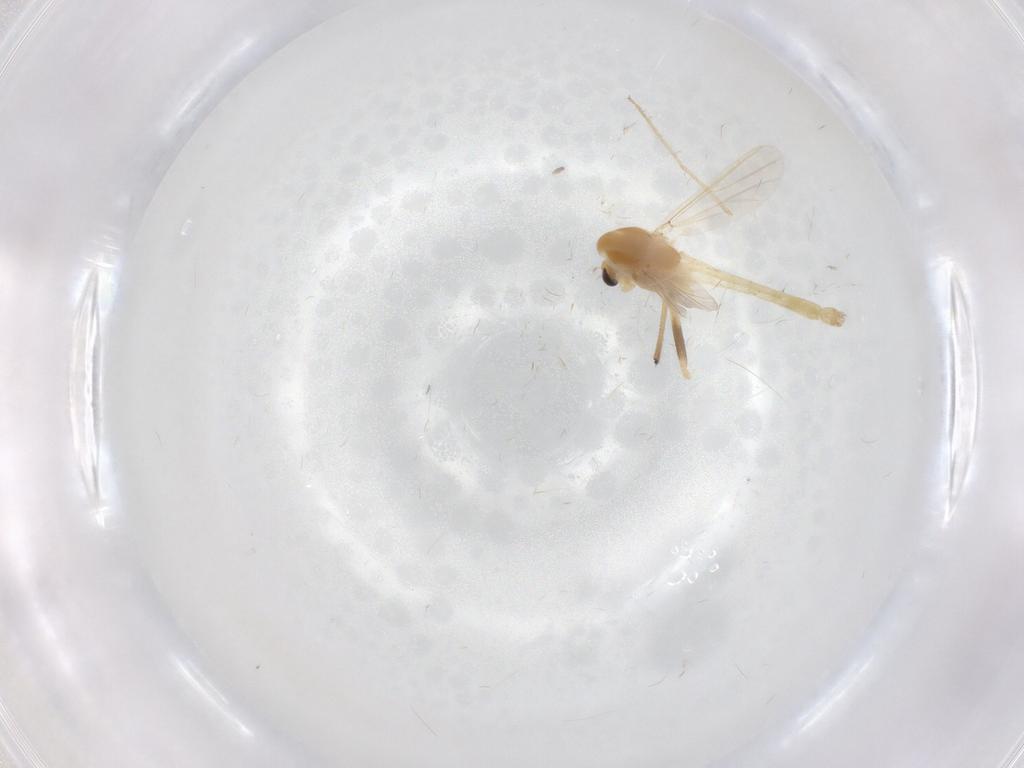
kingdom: Animalia
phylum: Arthropoda
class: Insecta
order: Diptera
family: Chironomidae
